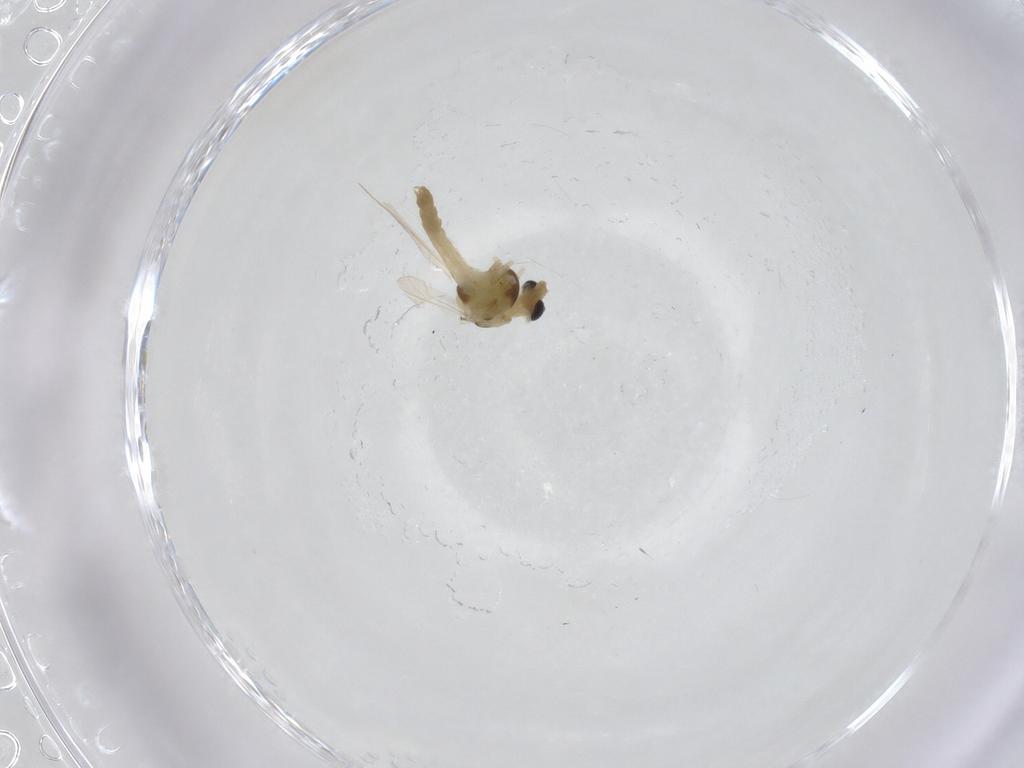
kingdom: Animalia
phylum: Arthropoda
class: Insecta
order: Diptera
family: Chironomidae
